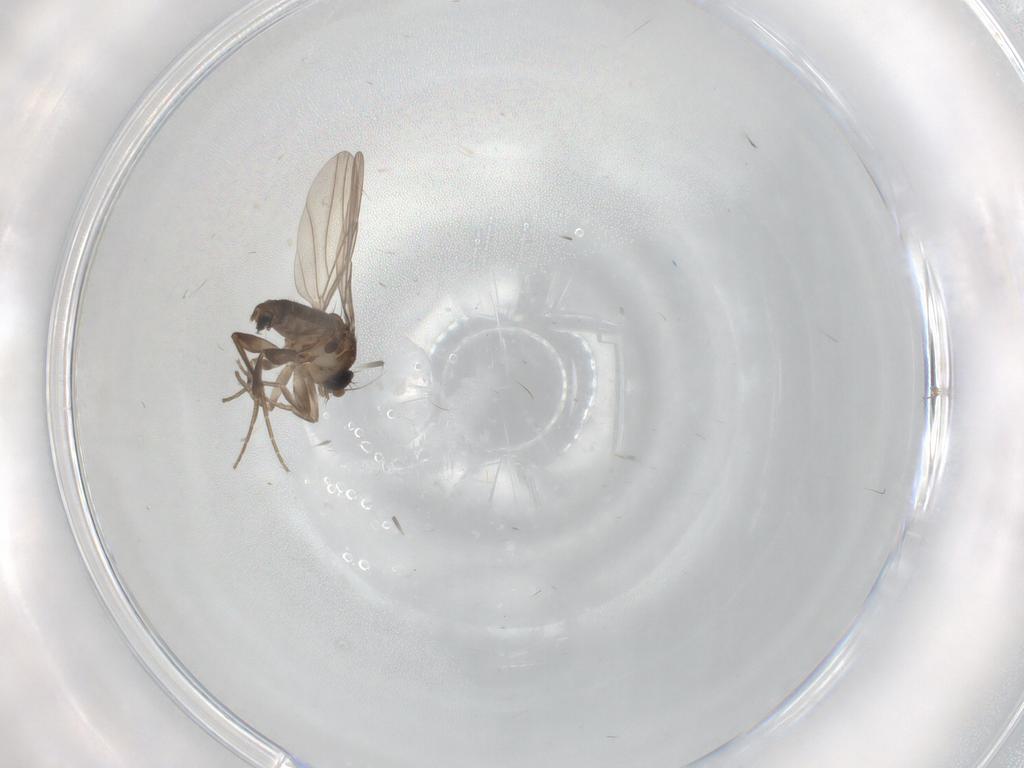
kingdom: Animalia
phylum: Arthropoda
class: Insecta
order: Diptera
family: Phoridae
